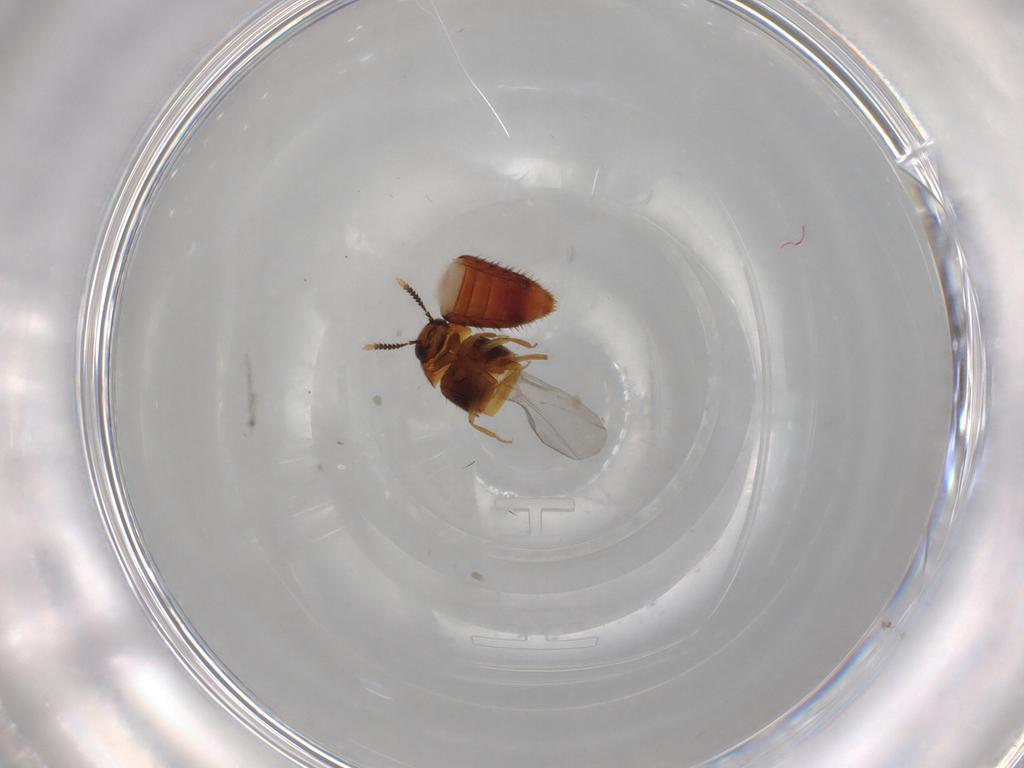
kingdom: Animalia
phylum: Arthropoda
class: Insecta
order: Coleoptera
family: Staphylinidae
